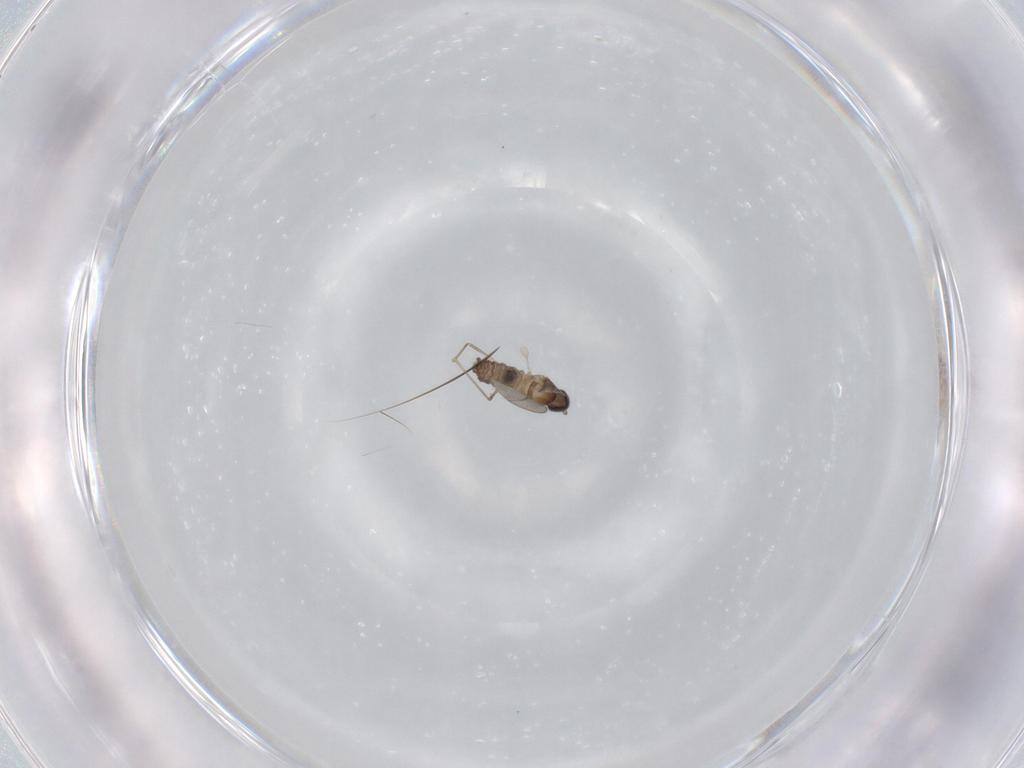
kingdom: Animalia
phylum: Arthropoda
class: Insecta
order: Diptera
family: Cecidomyiidae
